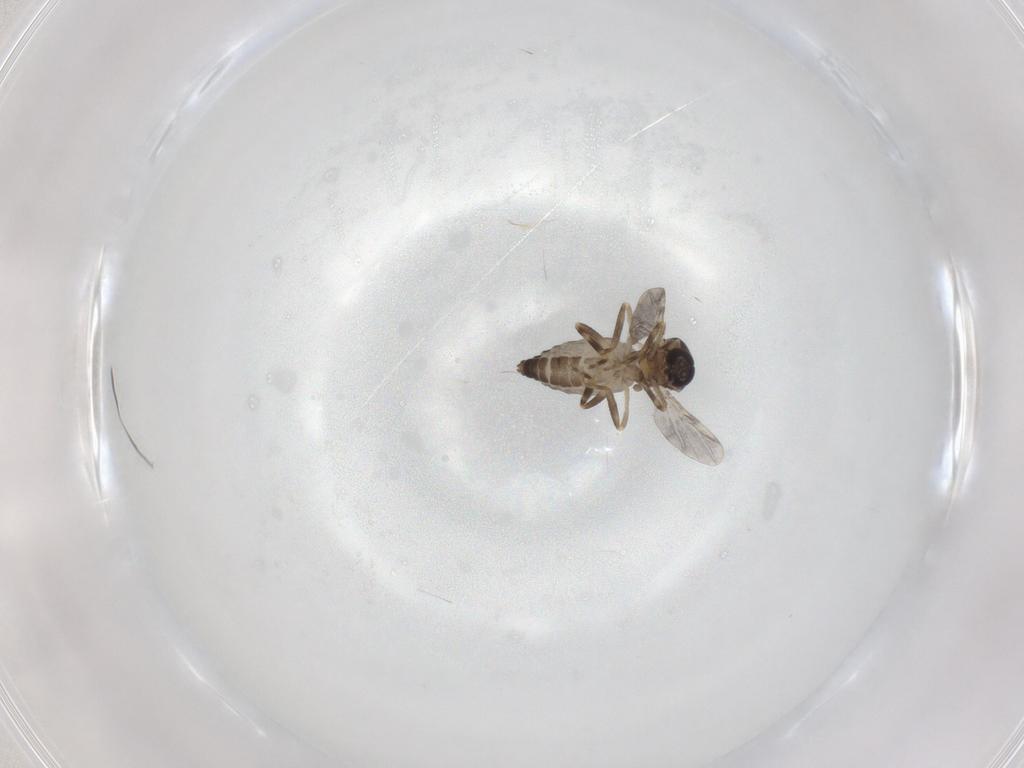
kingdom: Animalia
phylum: Arthropoda
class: Insecta
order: Diptera
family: Ceratopogonidae
